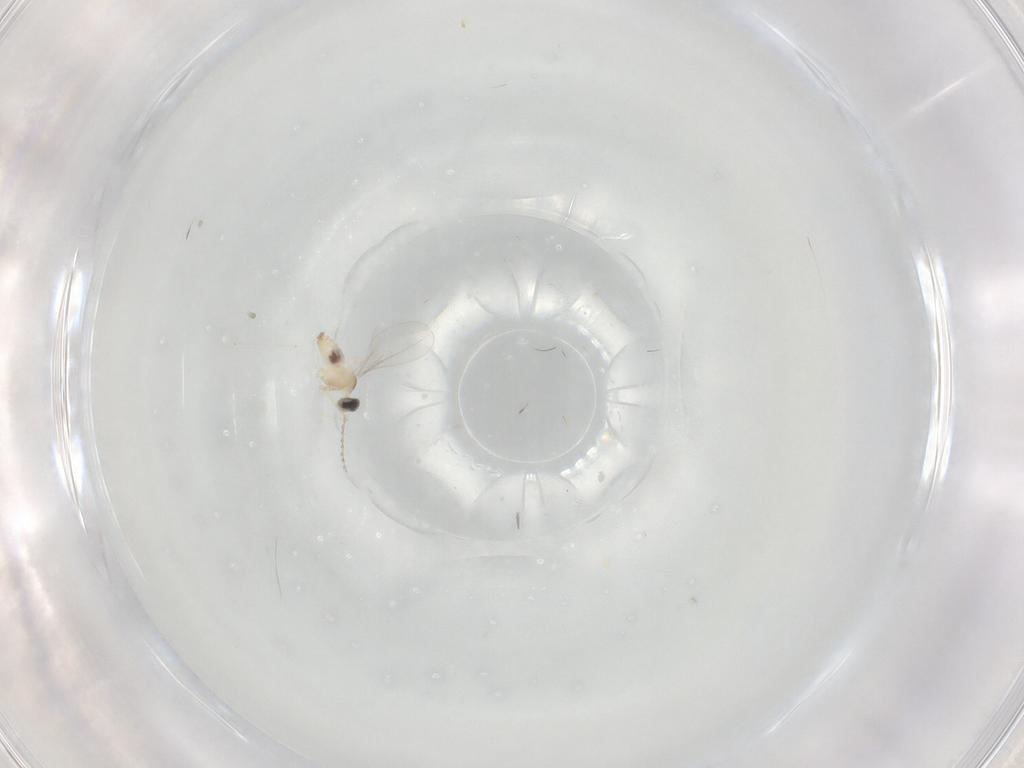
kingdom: Animalia
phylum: Arthropoda
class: Insecta
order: Diptera
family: Cecidomyiidae
